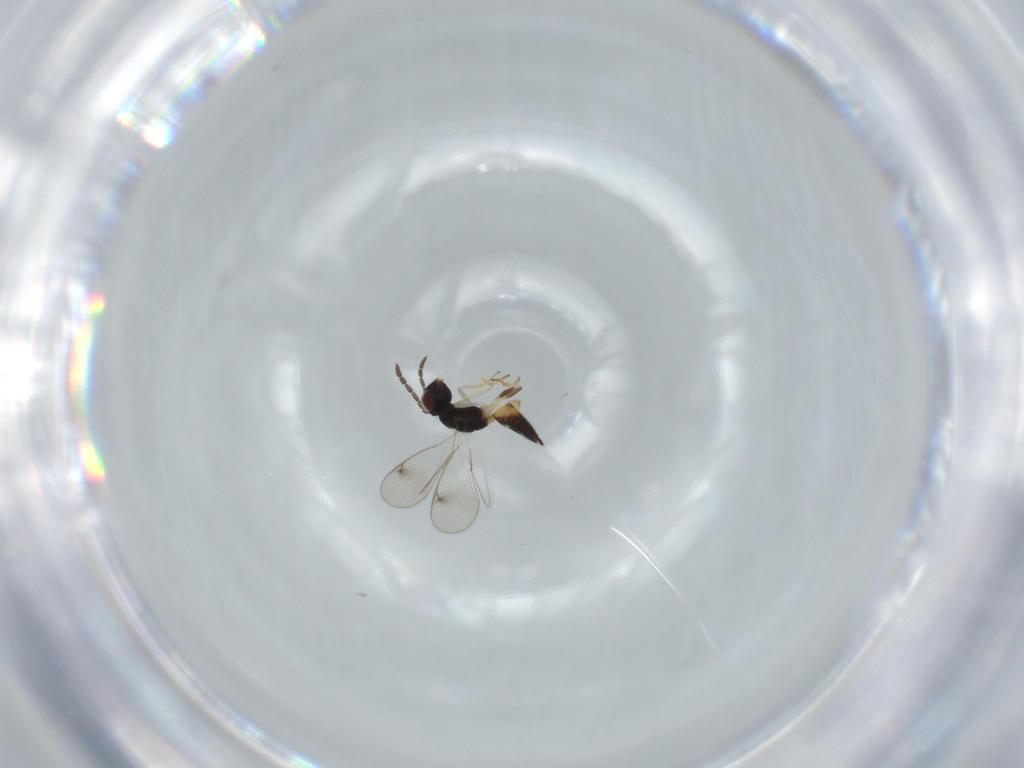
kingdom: Animalia
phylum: Arthropoda
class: Insecta
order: Hymenoptera
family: Eulophidae
